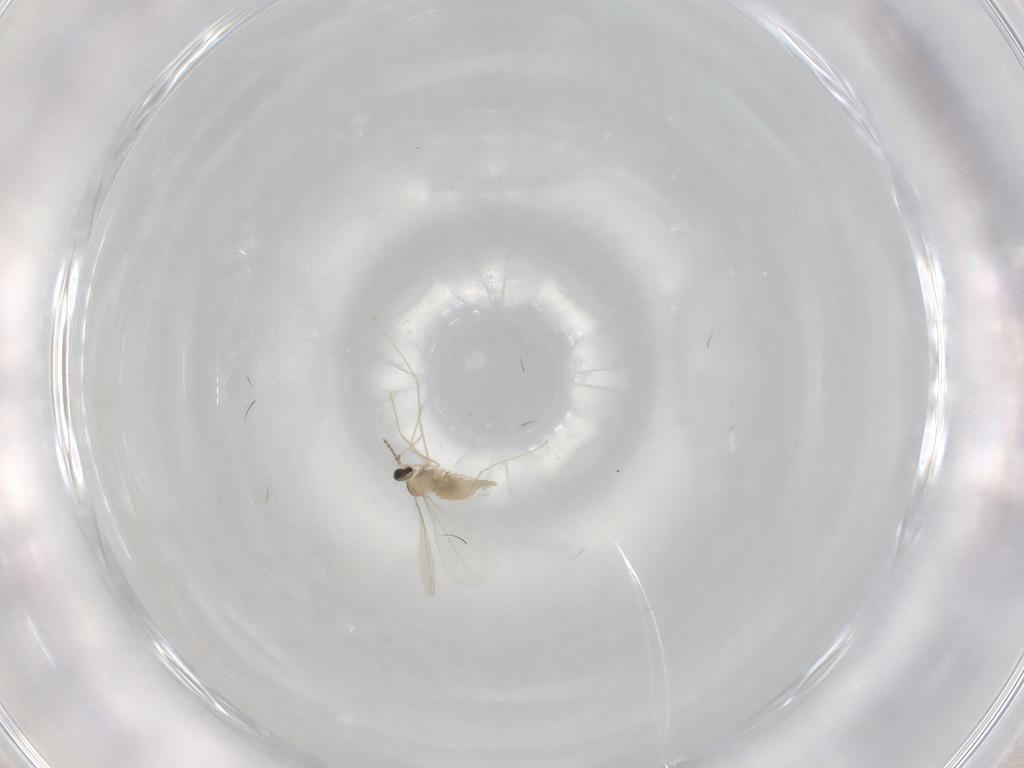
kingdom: Animalia
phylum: Arthropoda
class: Insecta
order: Diptera
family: Cecidomyiidae
